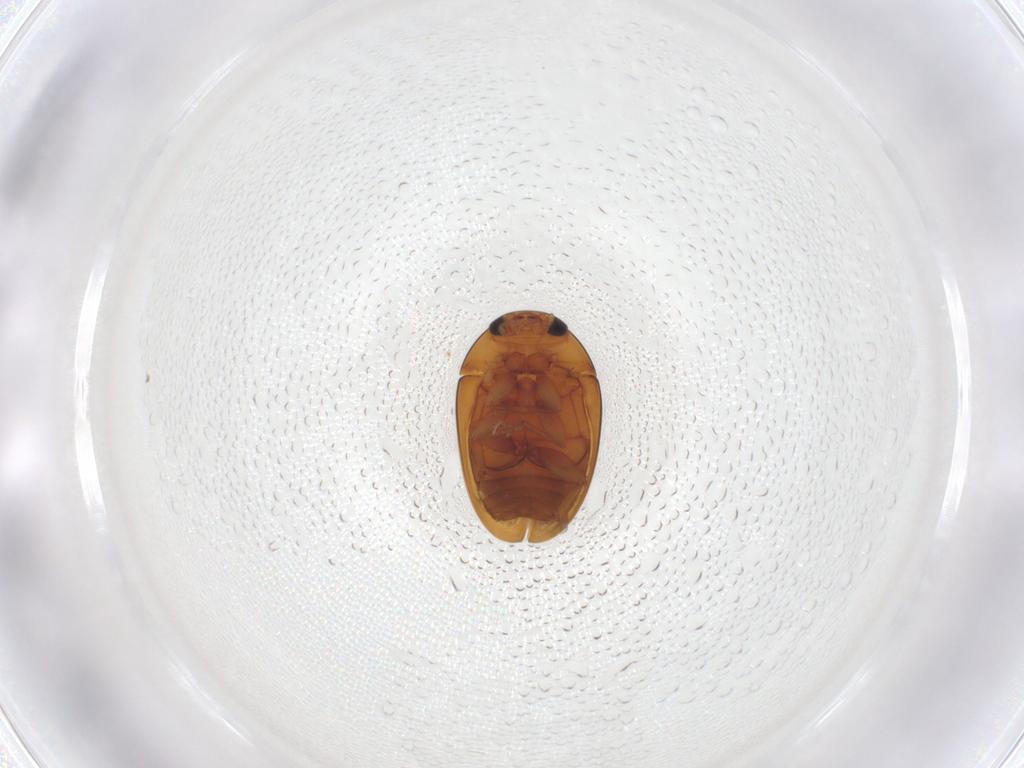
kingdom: Animalia
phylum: Arthropoda
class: Insecta
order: Coleoptera
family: Phalacridae
